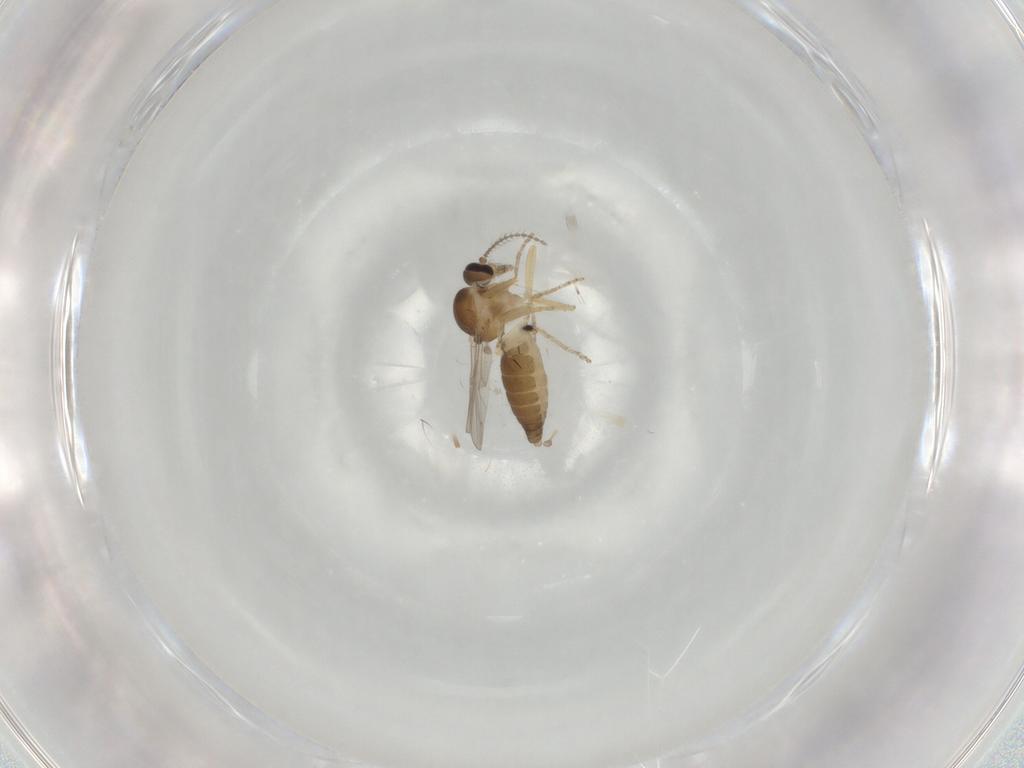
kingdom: Animalia
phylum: Arthropoda
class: Insecta
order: Diptera
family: Ceratopogonidae
